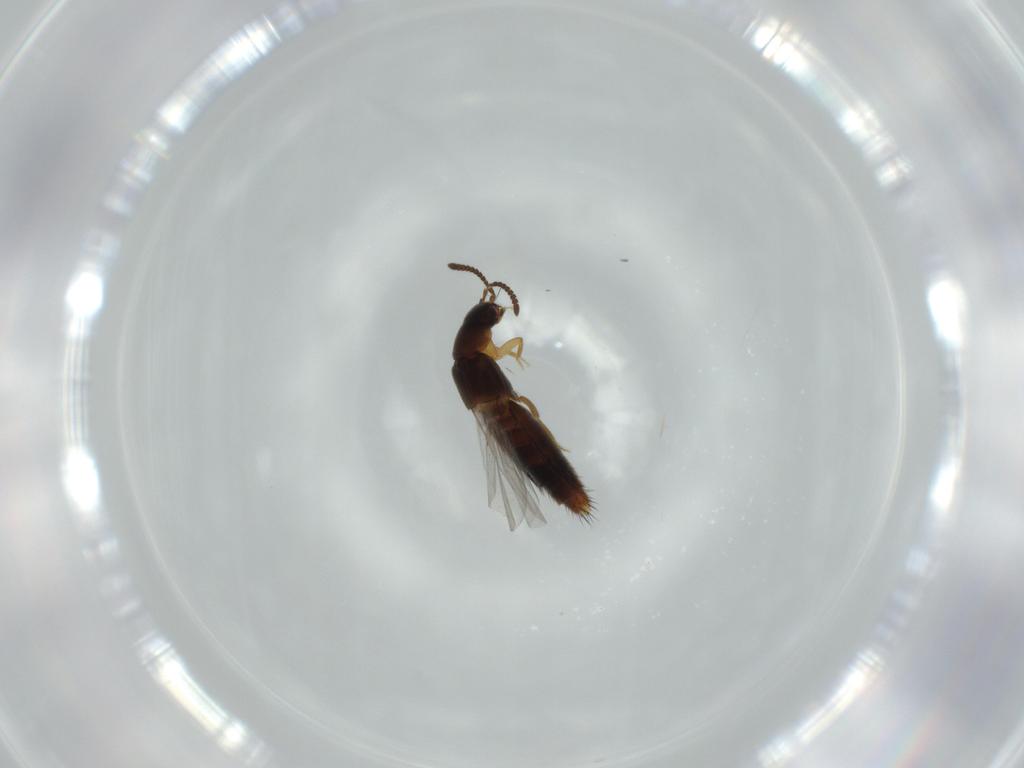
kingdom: Animalia
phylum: Arthropoda
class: Insecta
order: Coleoptera
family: Staphylinidae
